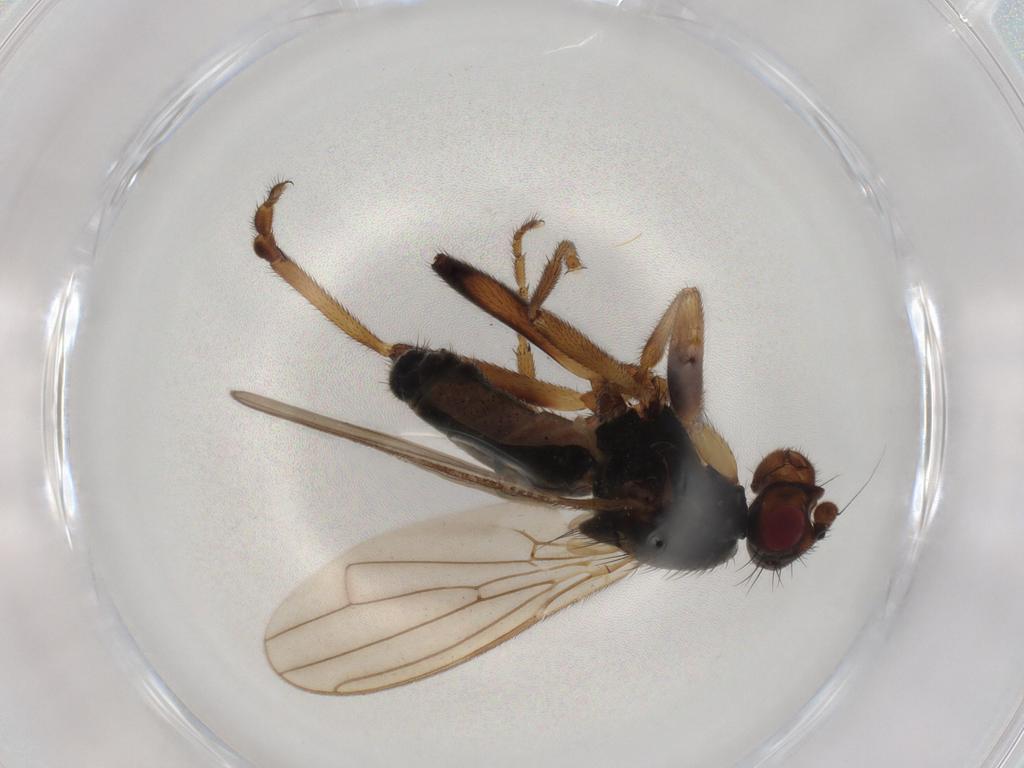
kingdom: Animalia
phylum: Arthropoda
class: Insecta
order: Diptera
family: Sphaeroceridae
